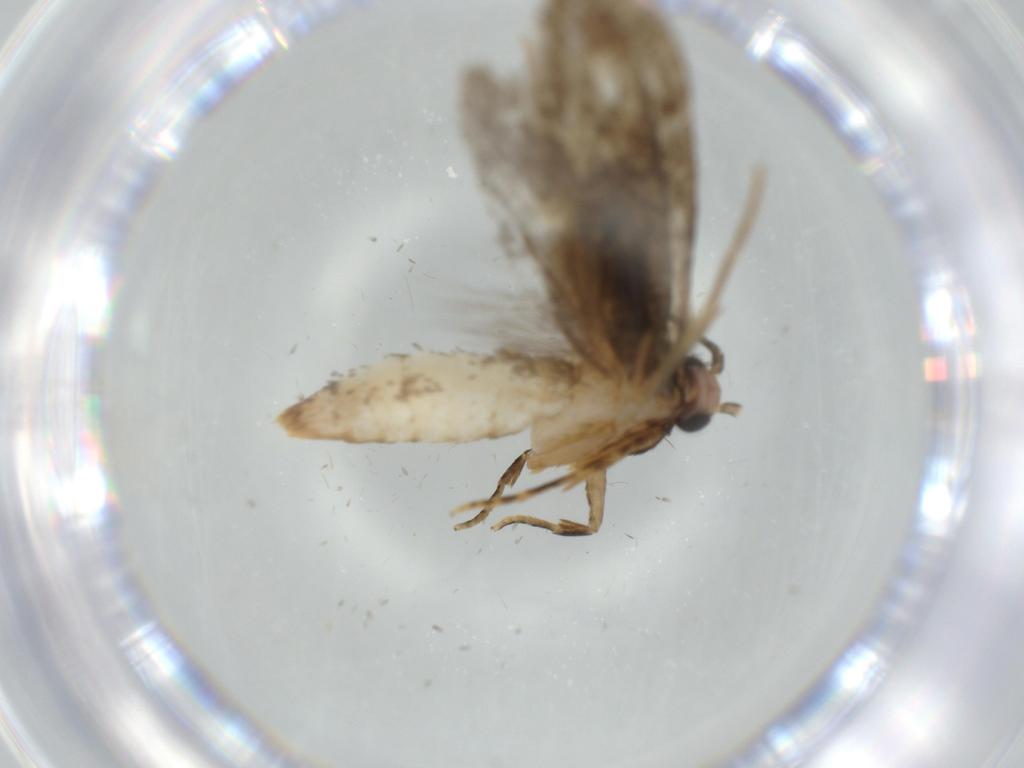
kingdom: Animalia
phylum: Arthropoda
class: Insecta
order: Lepidoptera
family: Tineidae
